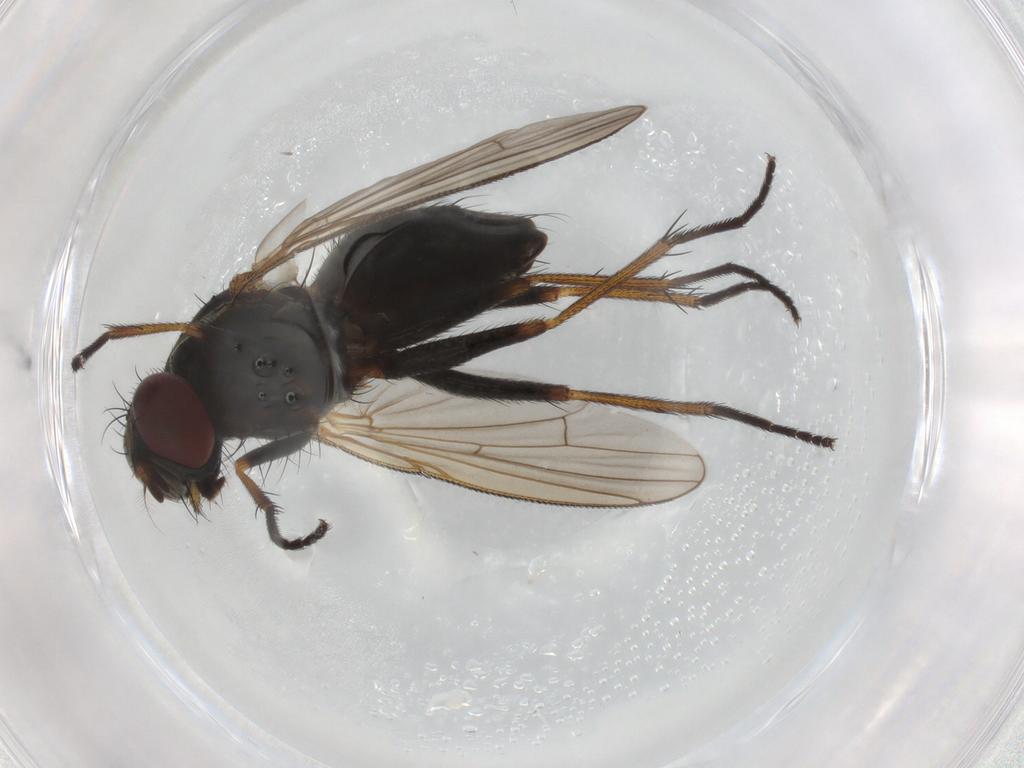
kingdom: Animalia
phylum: Arthropoda
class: Insecta
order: Diptera
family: Muscidae
